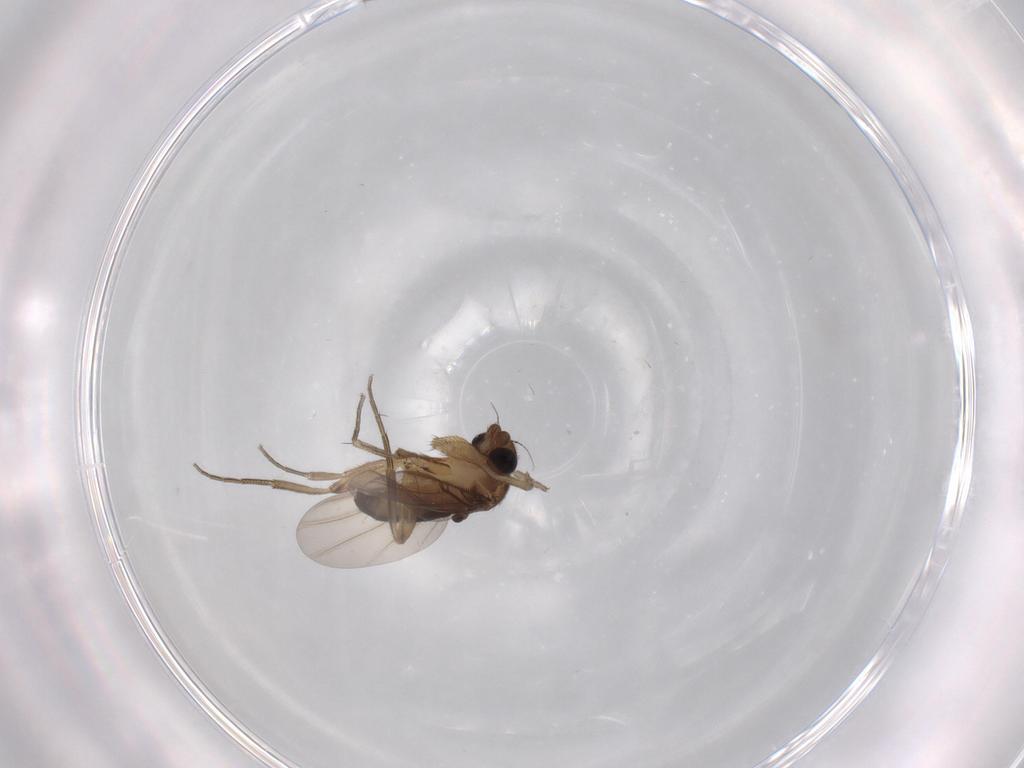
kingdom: Animalia
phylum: Arthropoda
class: Insecta
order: Diptera
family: Phoridae
